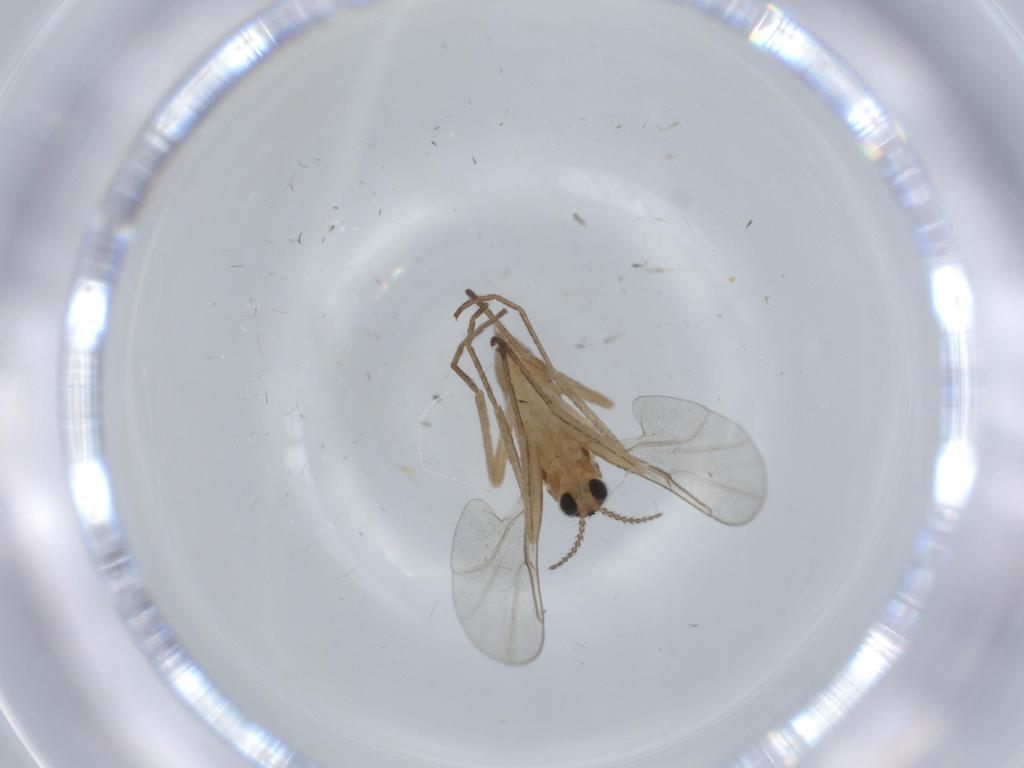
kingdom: Animalia
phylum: Arthropoda
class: Insecta
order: Diptera
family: Cecidomyiidae
